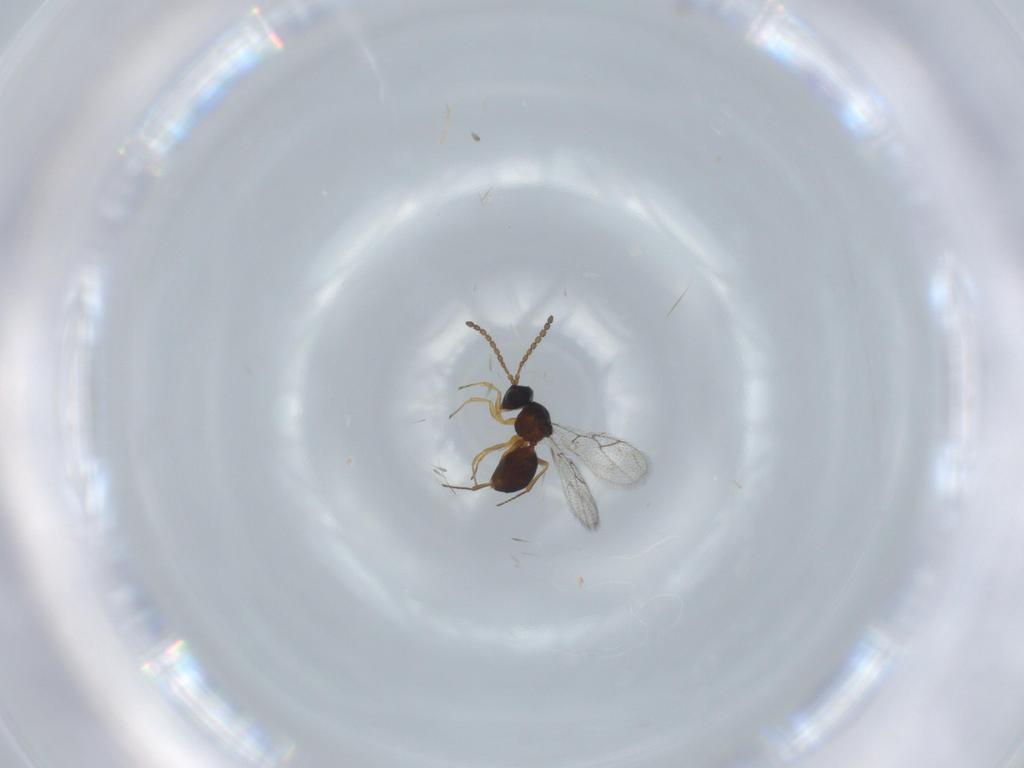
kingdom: Animalia
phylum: Arthropoda
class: Insecta
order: Hymenoptera
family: Figitidae
